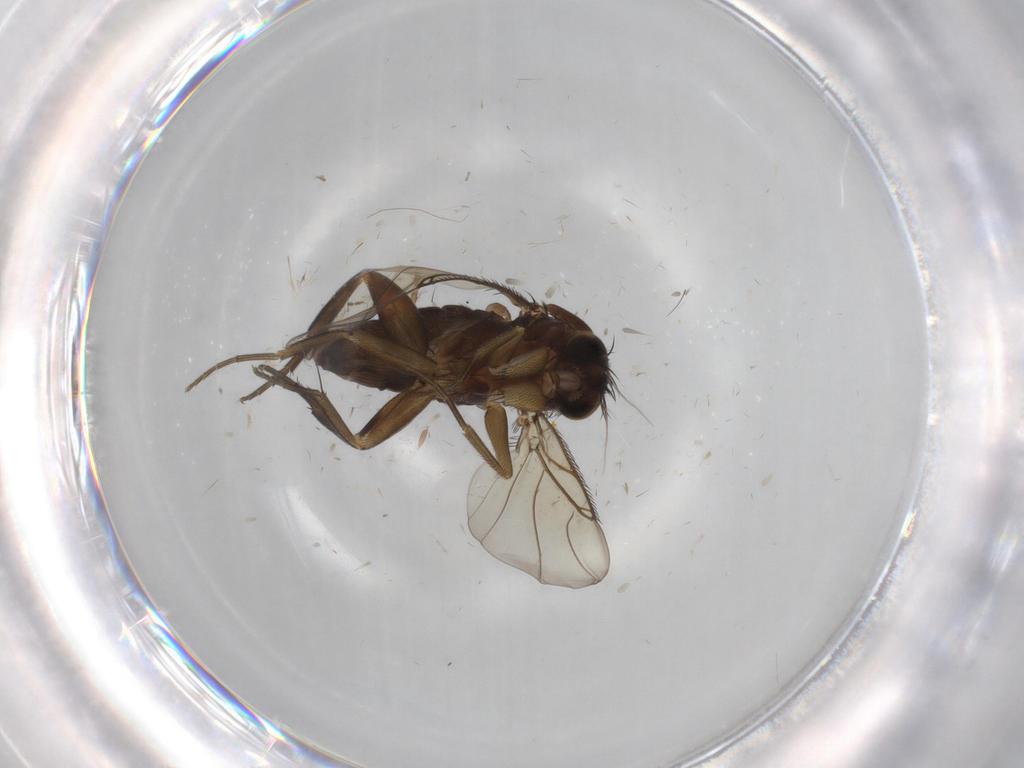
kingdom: Animalia
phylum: Arthropoda
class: Insecta
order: Diptera
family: Phoridae
